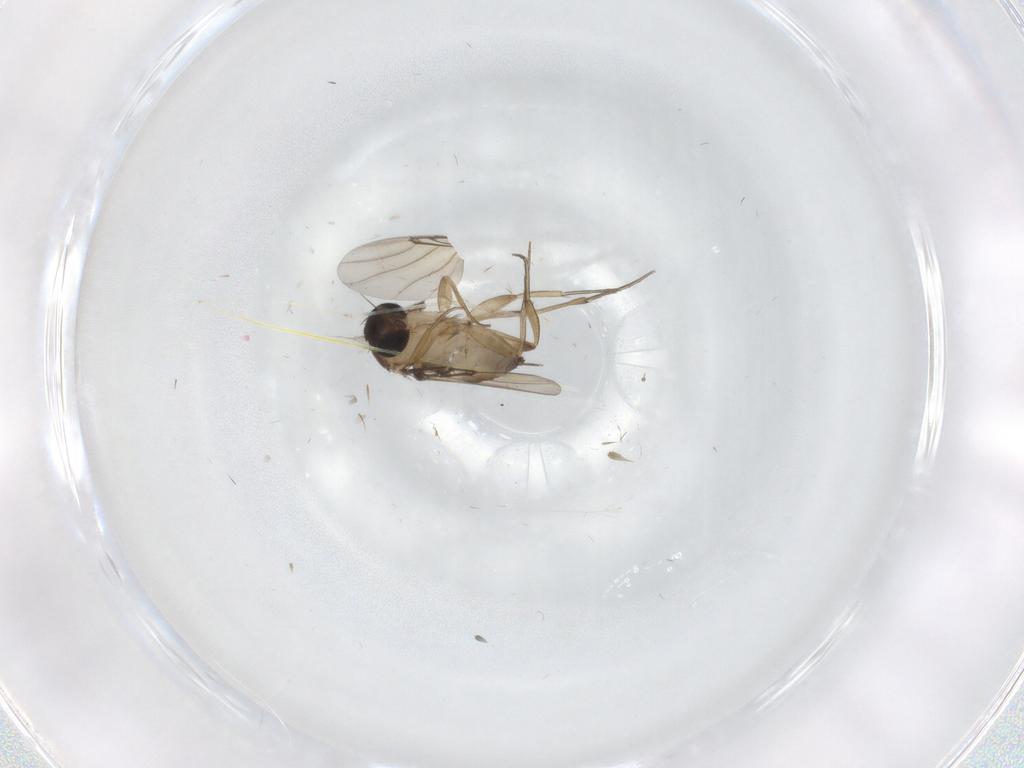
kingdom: Animalia
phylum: Arthropoda
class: Insecta
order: Diptera
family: Phoridae
